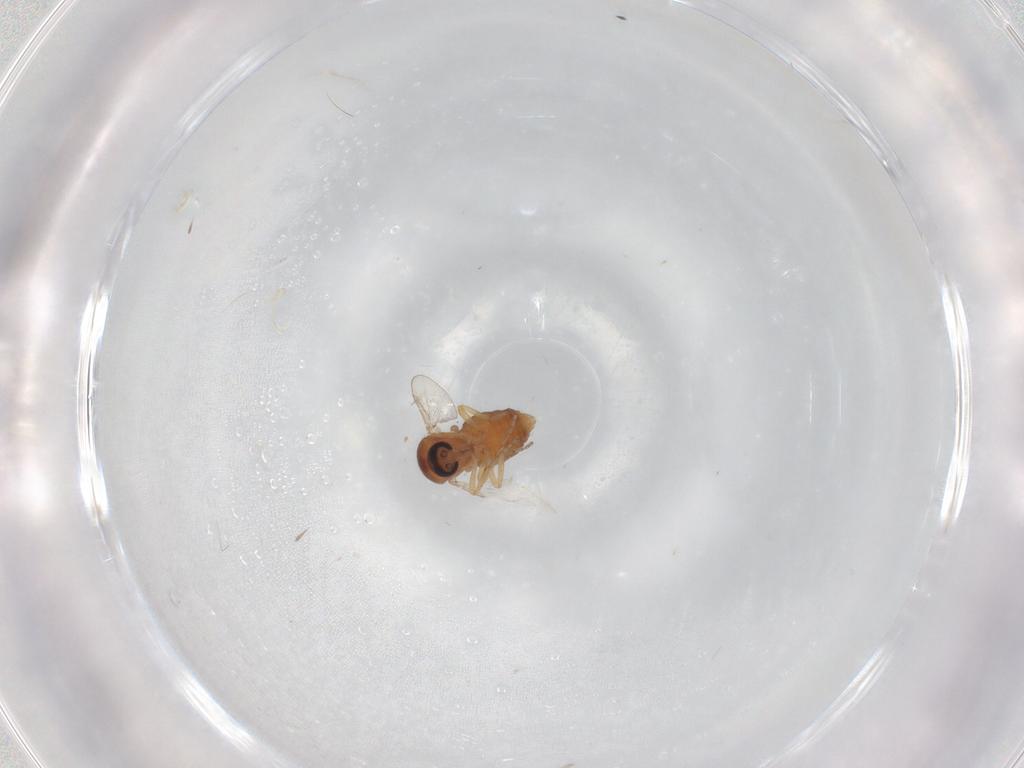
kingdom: Animalia
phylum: Arthropoda
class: Insecta
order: Diptera
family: Ceratopogonidae
